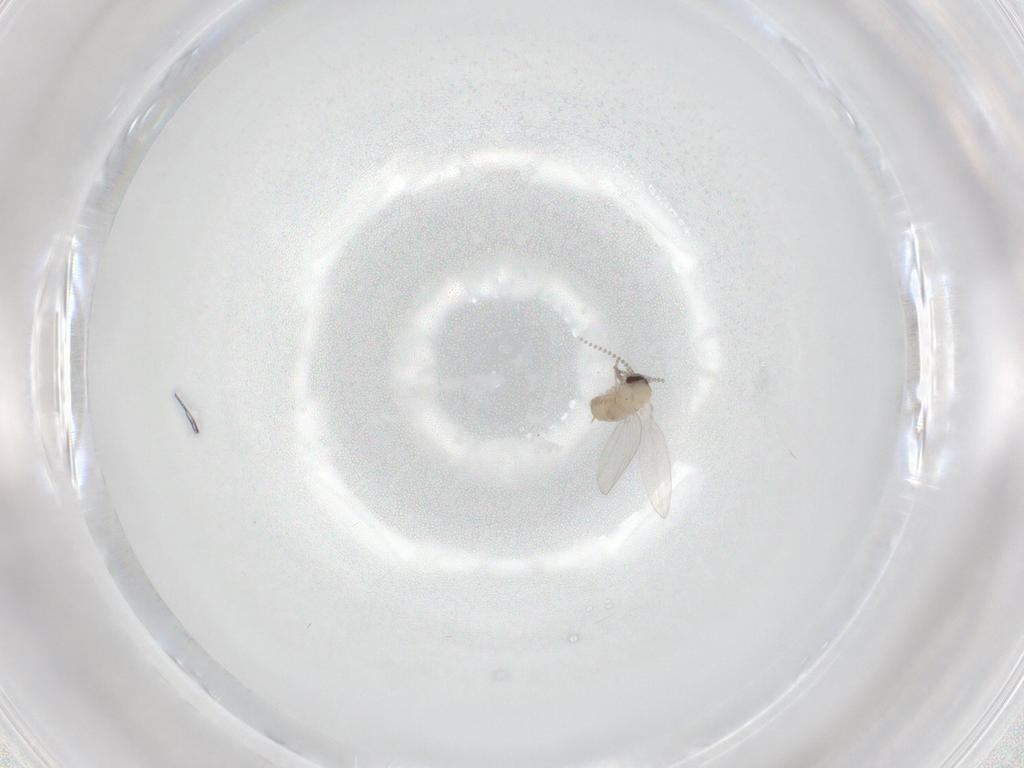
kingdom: Animalia
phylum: Arthropoda
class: Insecta
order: Diptera
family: Psychodidae
